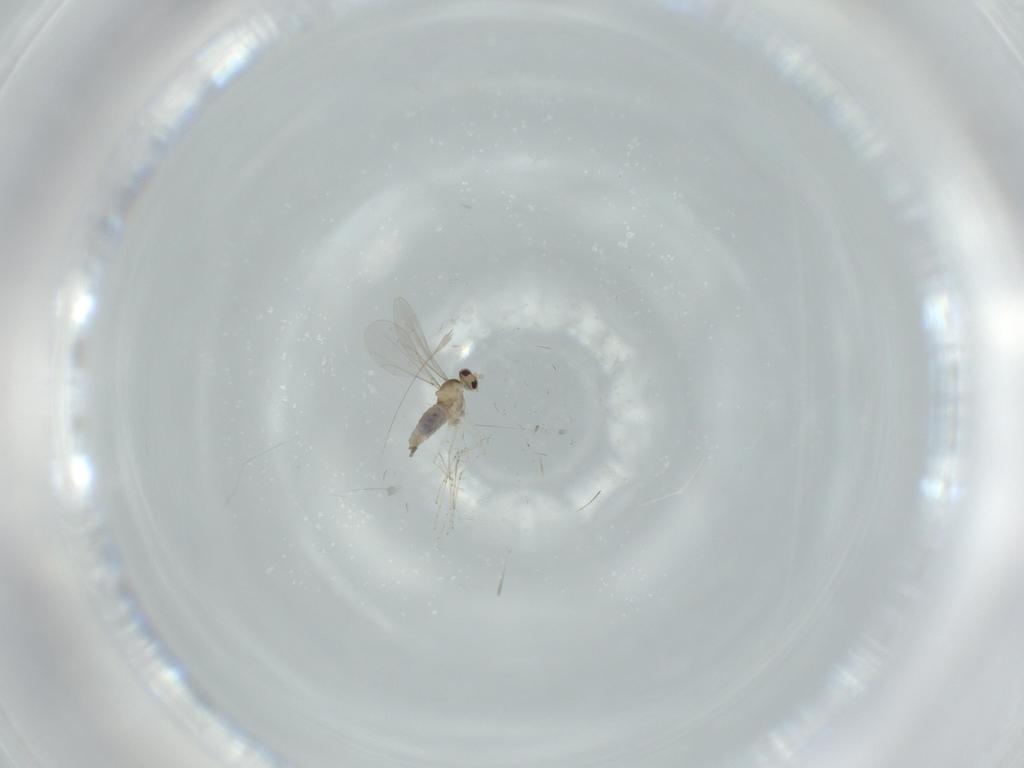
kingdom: Animalia
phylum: Arthropoda
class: Insecta
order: Diptera
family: Cecidomyiidae
